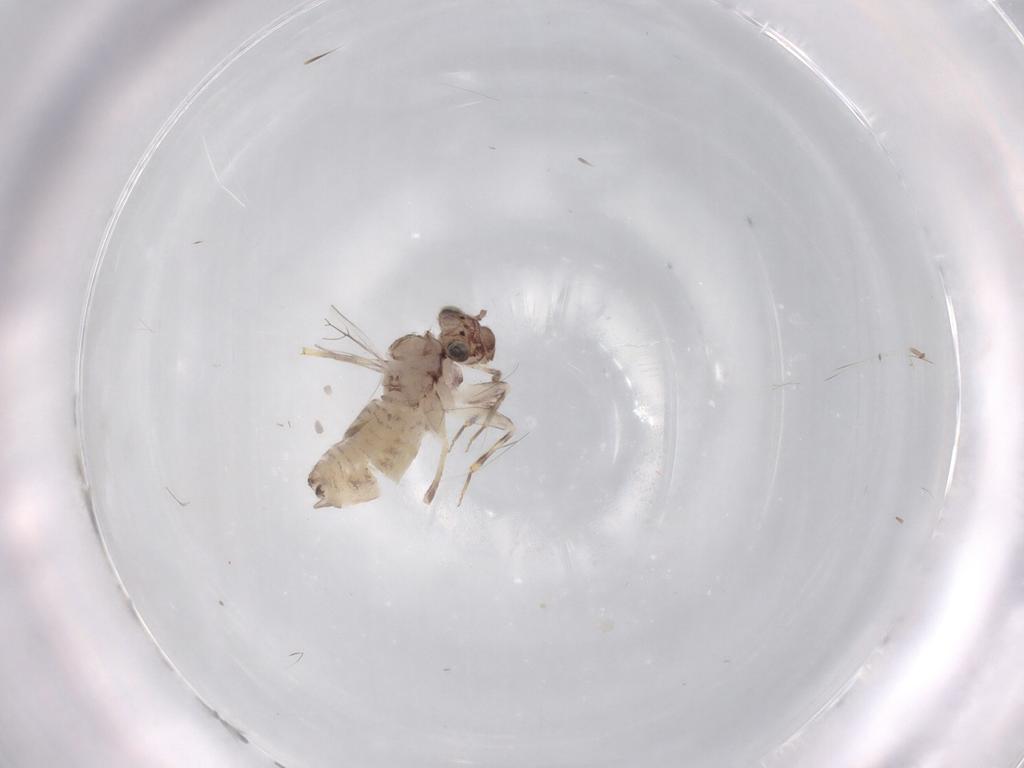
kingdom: Animalia
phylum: Arthropoda
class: Insecta
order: Psocodea
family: Lepidopsocidae
